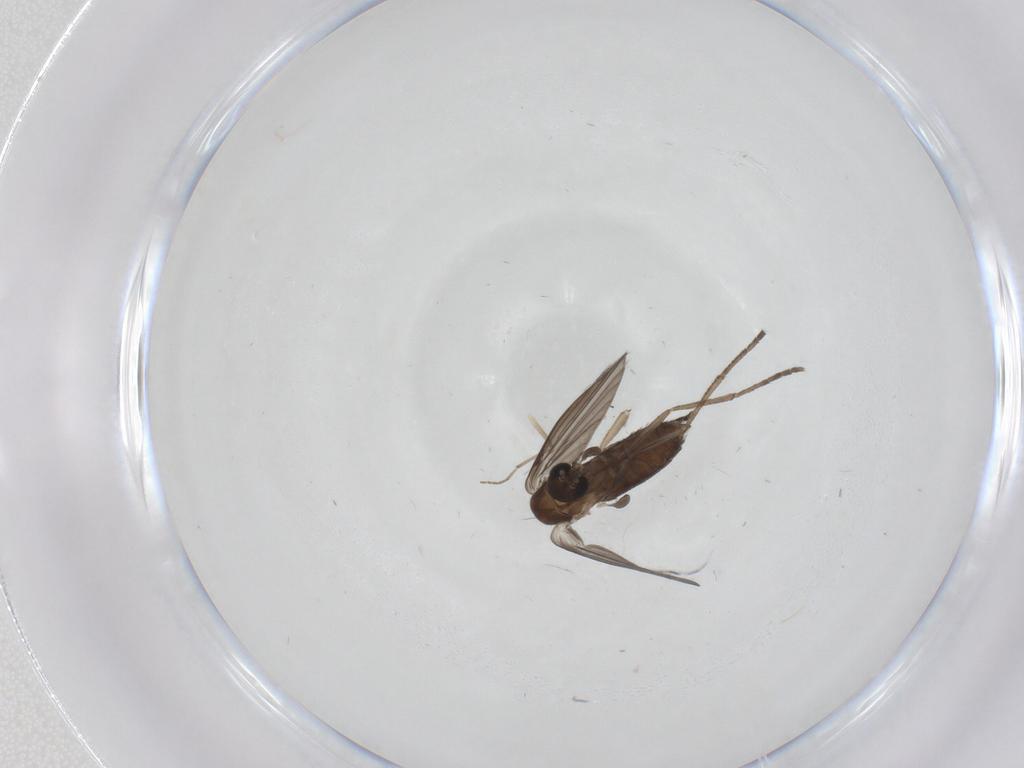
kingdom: Animalia
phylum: Arthropoda
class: Insecta
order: Diptera
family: Psychodidae
